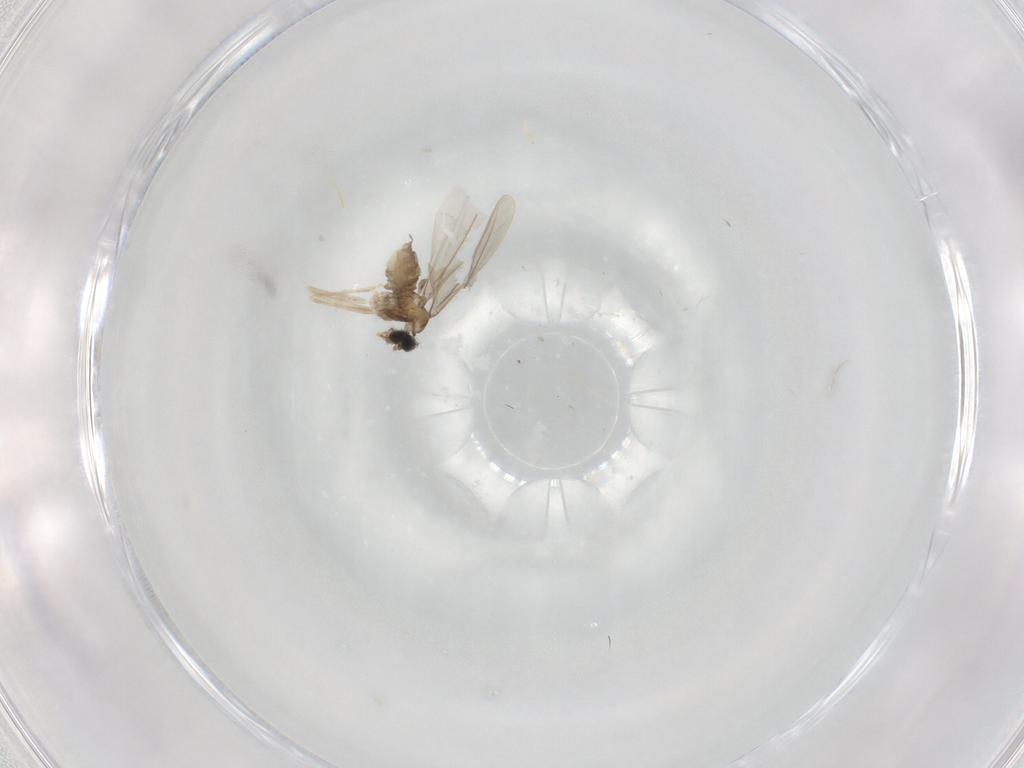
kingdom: Animalia
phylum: Arthropoda
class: Insecta
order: Diptera
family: Cecidomyiidae
